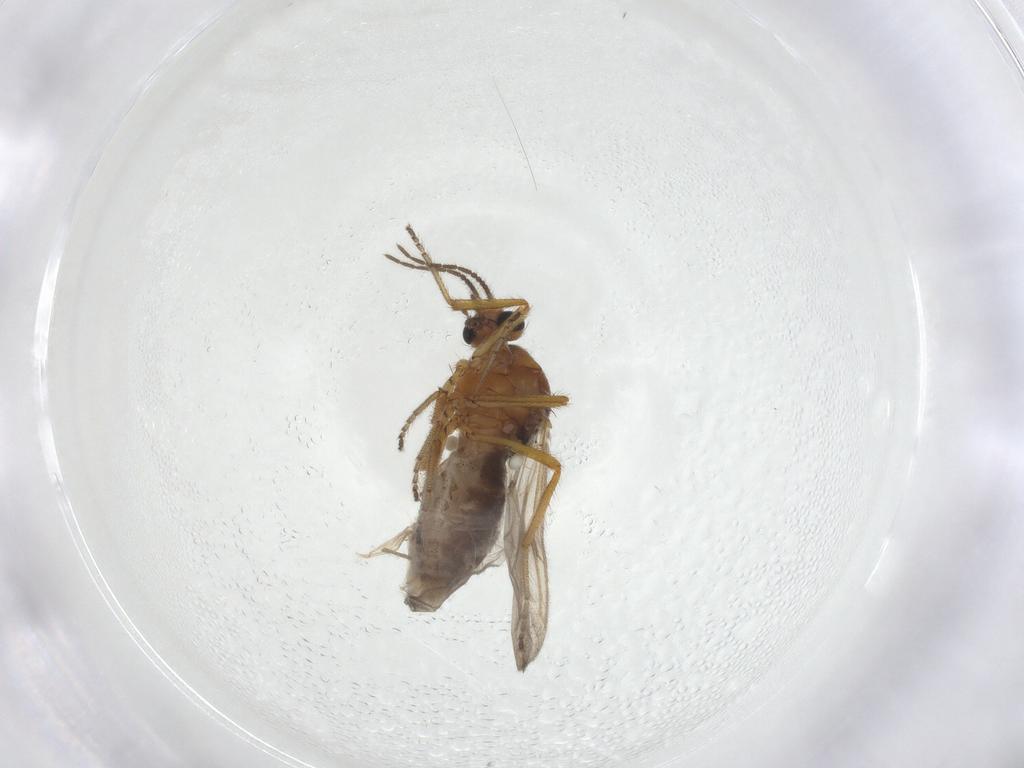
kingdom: Animalia
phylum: Arthropoda
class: Insecta
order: Diptera
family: Ceratopogonidae
